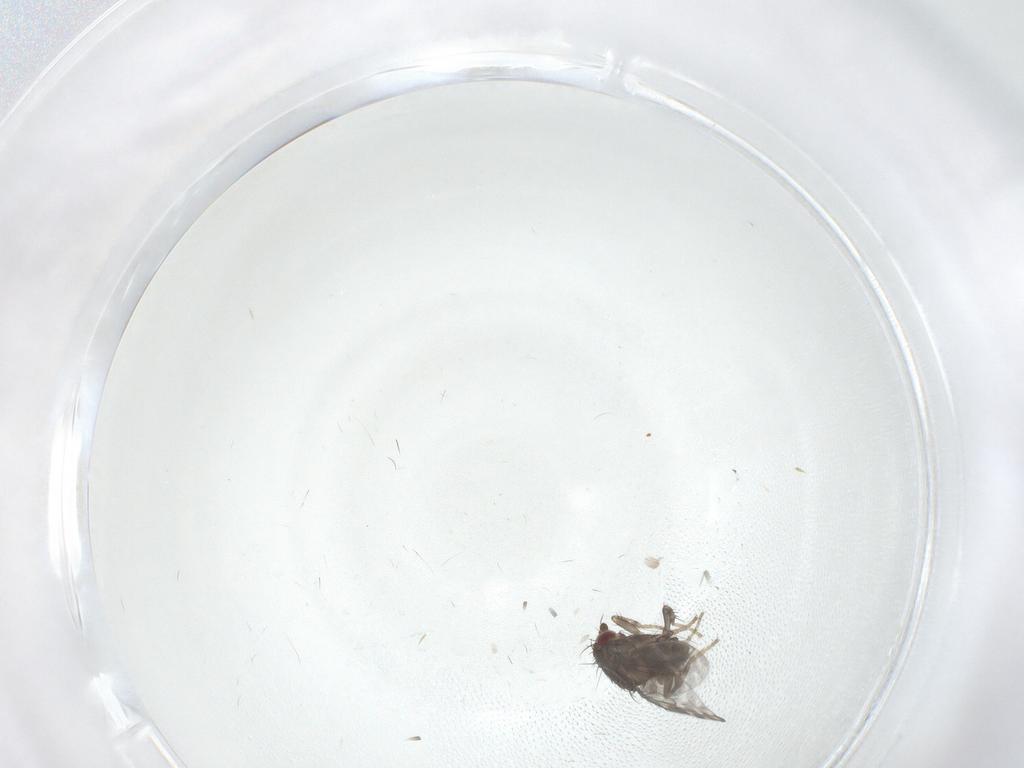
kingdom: Animalia
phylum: Arthropoda
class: Insecta
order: Diptera
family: Sphaeroceridae
